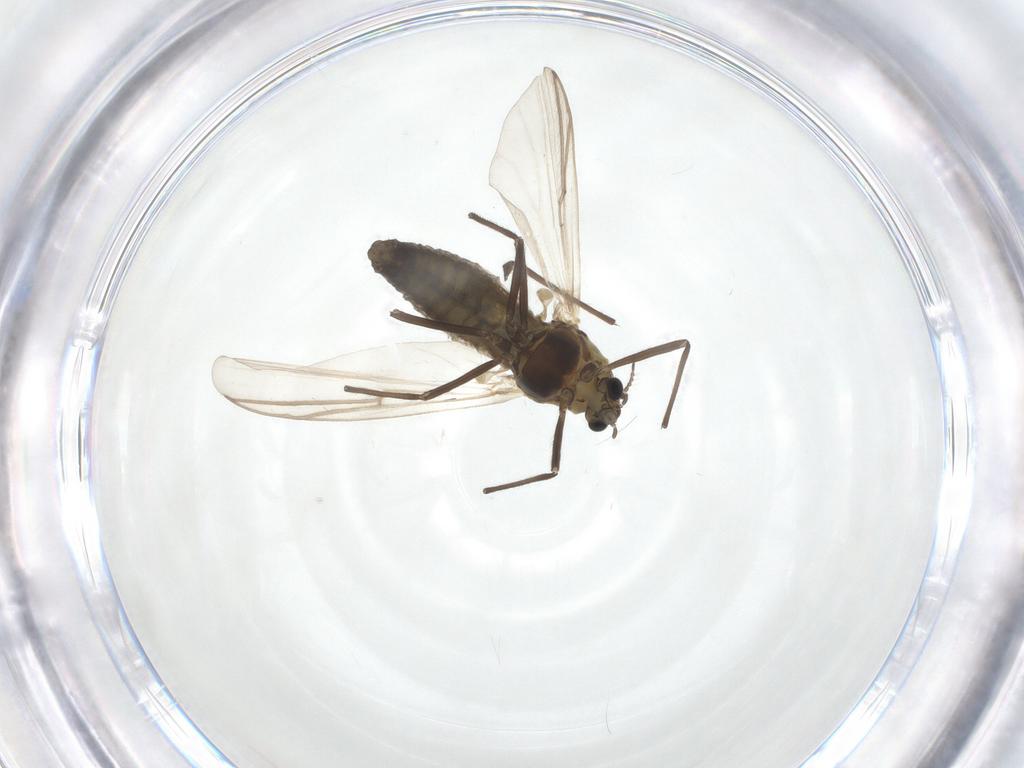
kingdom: Animalia
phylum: Arthropoda
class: Insecta
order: Diptera
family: Chironomidae
